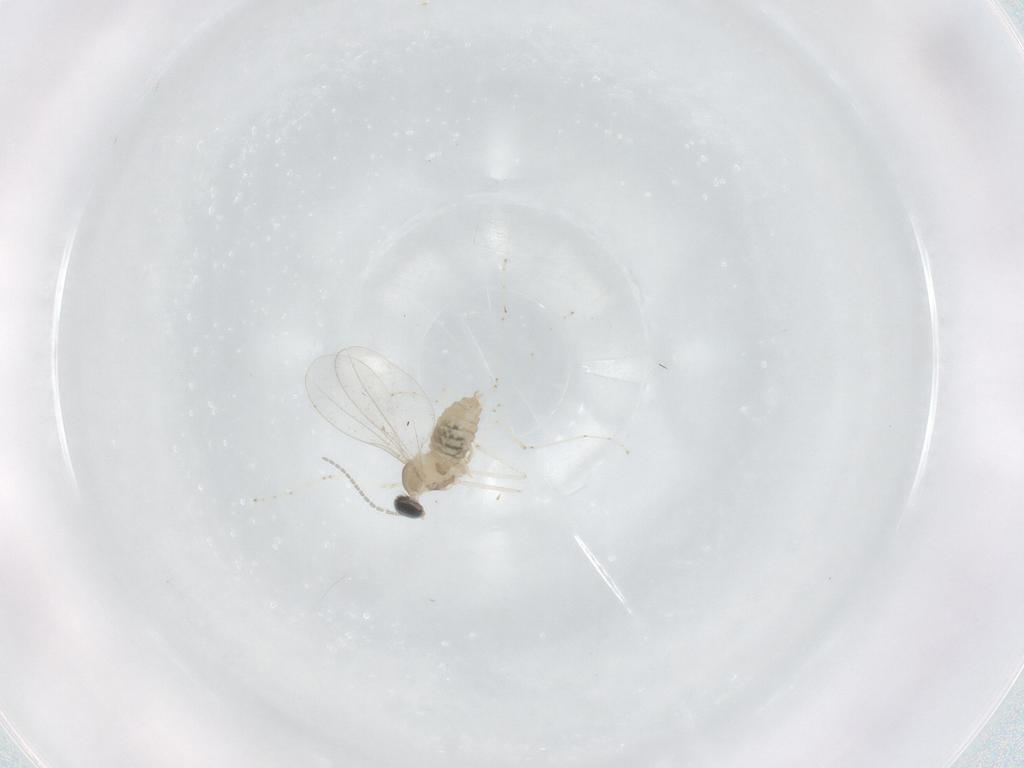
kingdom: Animalia
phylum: Arthropoda
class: Insecta
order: Diptera
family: Cecidomyiidae
